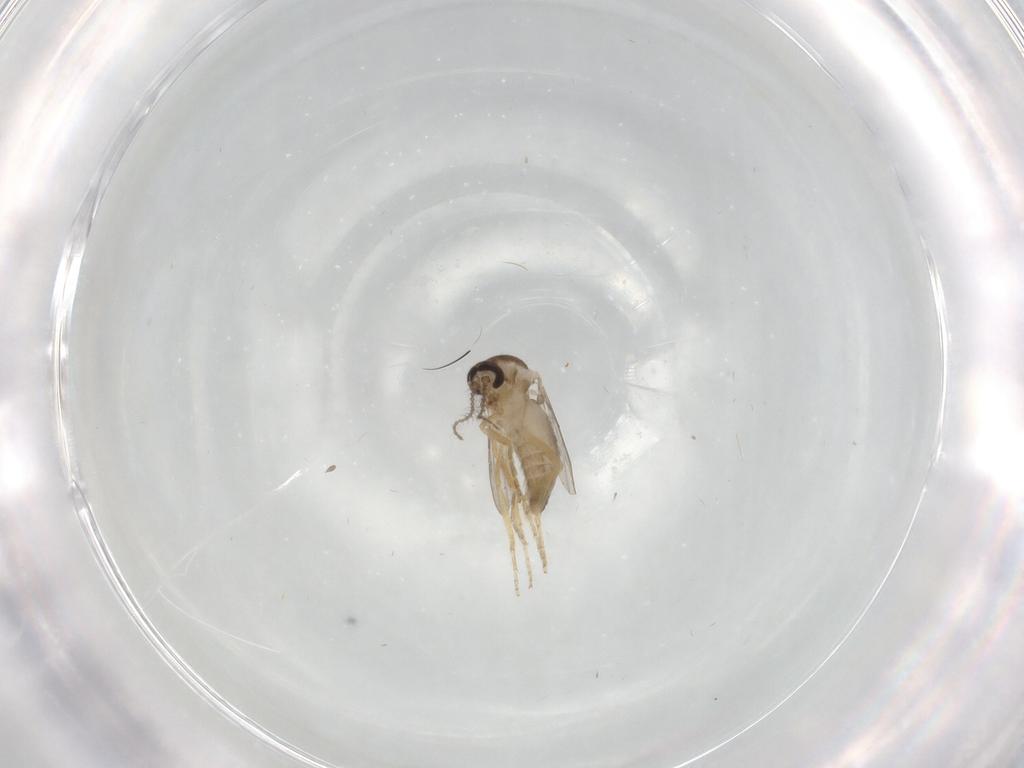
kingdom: Animalia
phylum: Arthropoda
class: Insecta
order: Diptera
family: Ceratopogonidae
